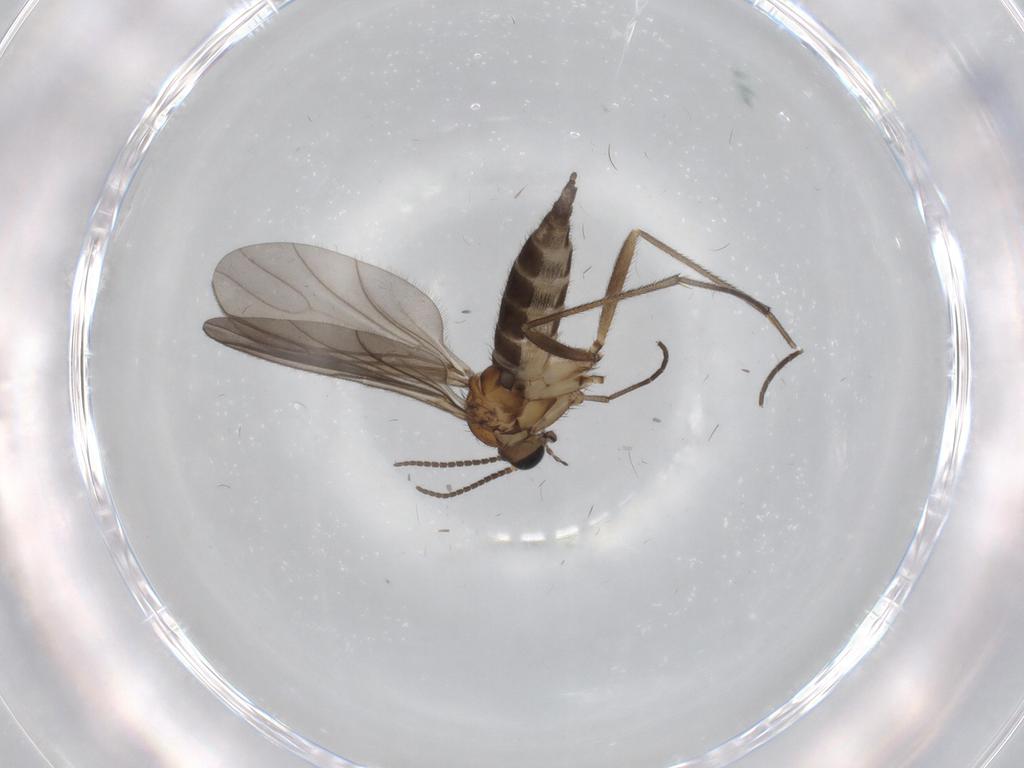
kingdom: Animalia
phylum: Arthropoda
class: Insecta
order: Diptera
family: Sciaridae
